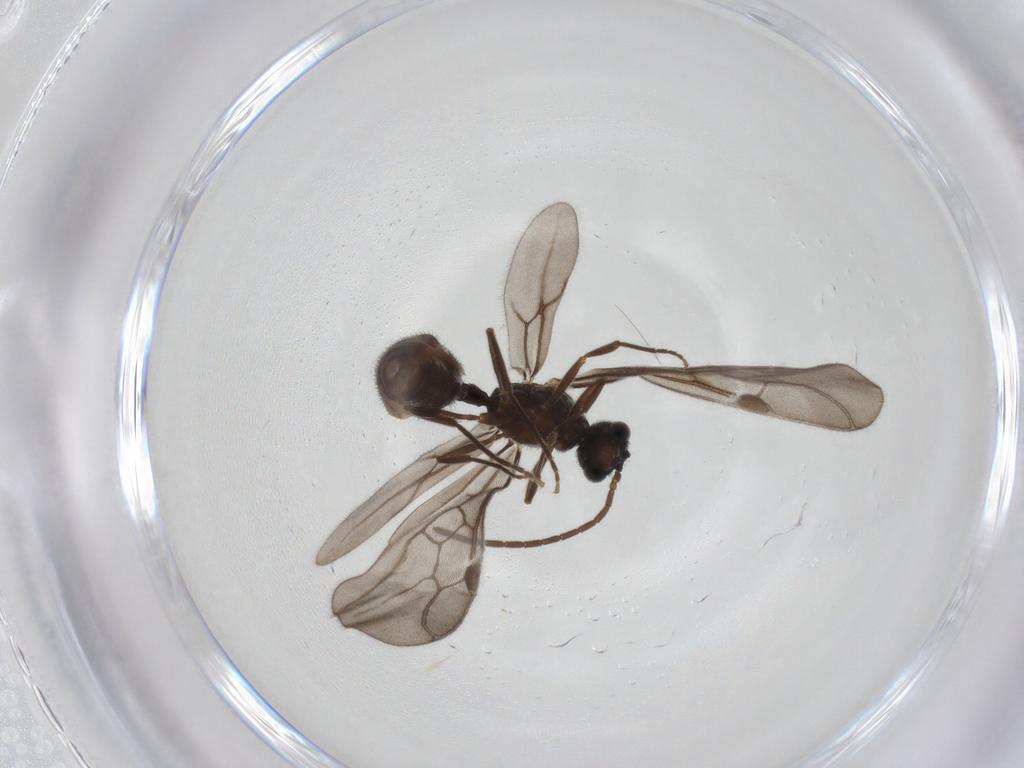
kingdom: Animalia
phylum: Arthropoda
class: Insecta
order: Hymenoptera
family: Formicidae
